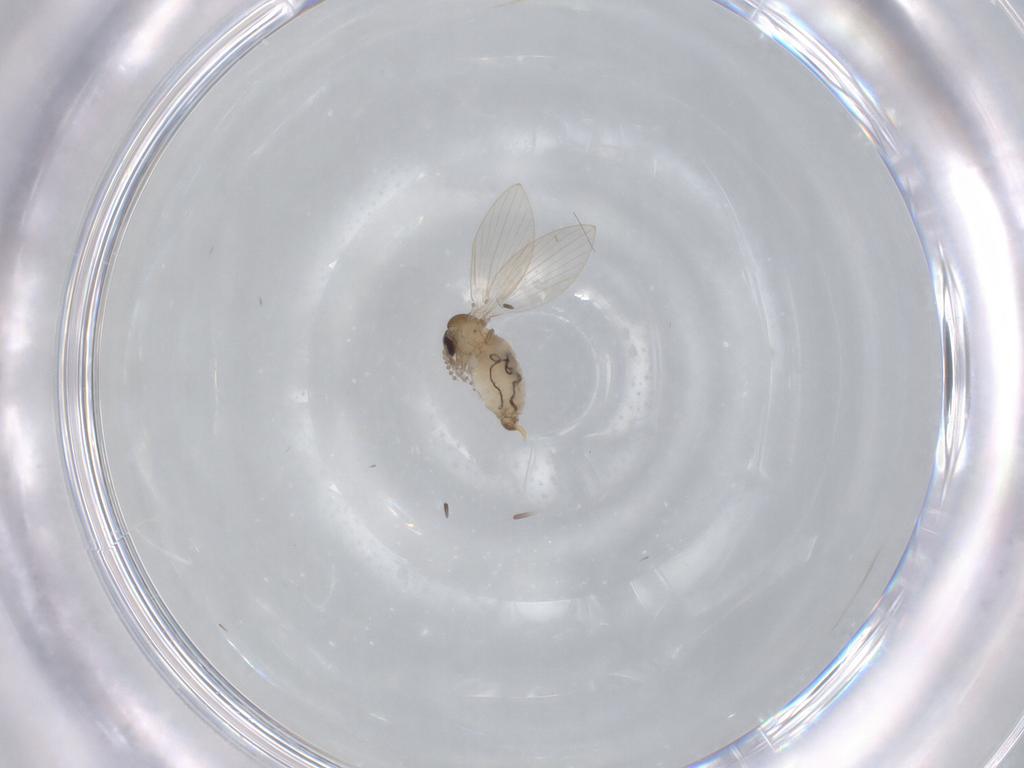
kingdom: Animalia
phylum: Arthropoda
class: Insecta
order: Diptera
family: Psychodidae
